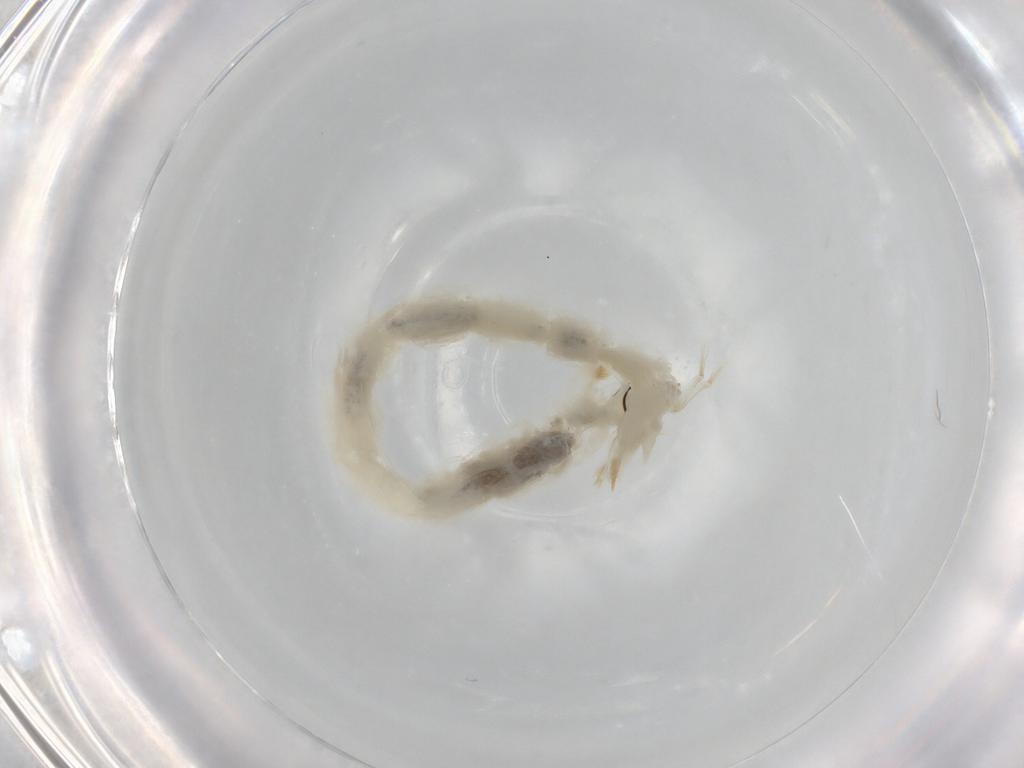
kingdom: Animalia
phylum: Arthropoda
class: Insecta
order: Diptera
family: Chironomidae
